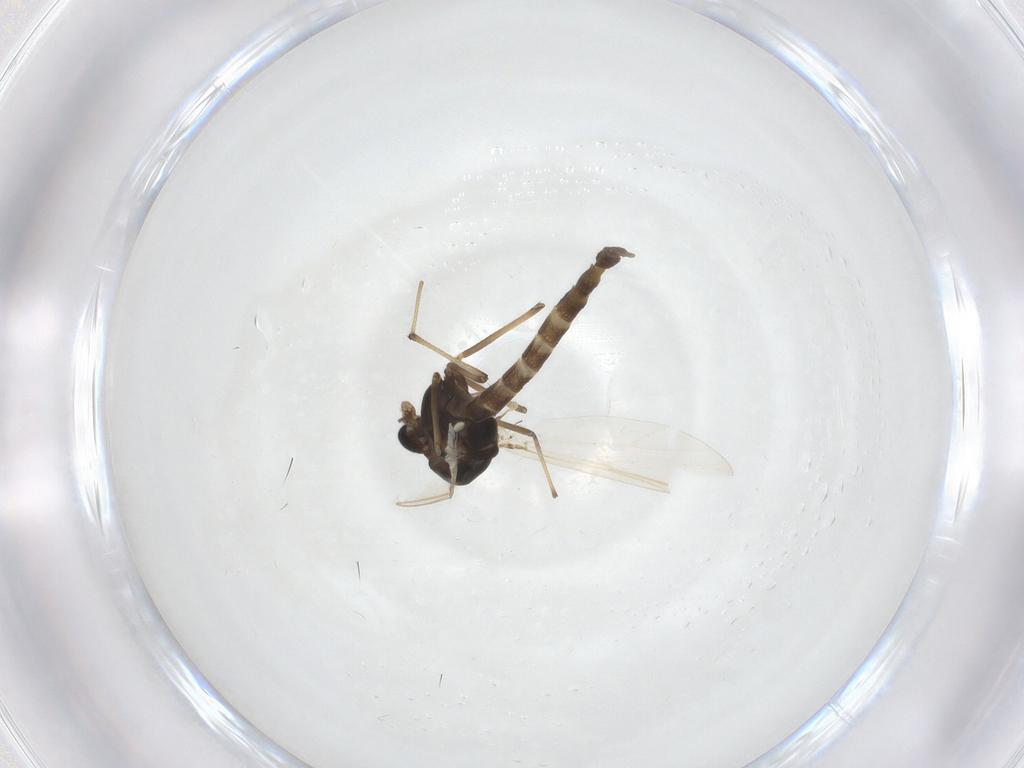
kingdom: Animalia
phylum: Arthropoda
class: Insecta
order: Diptera
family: Chironomidae
